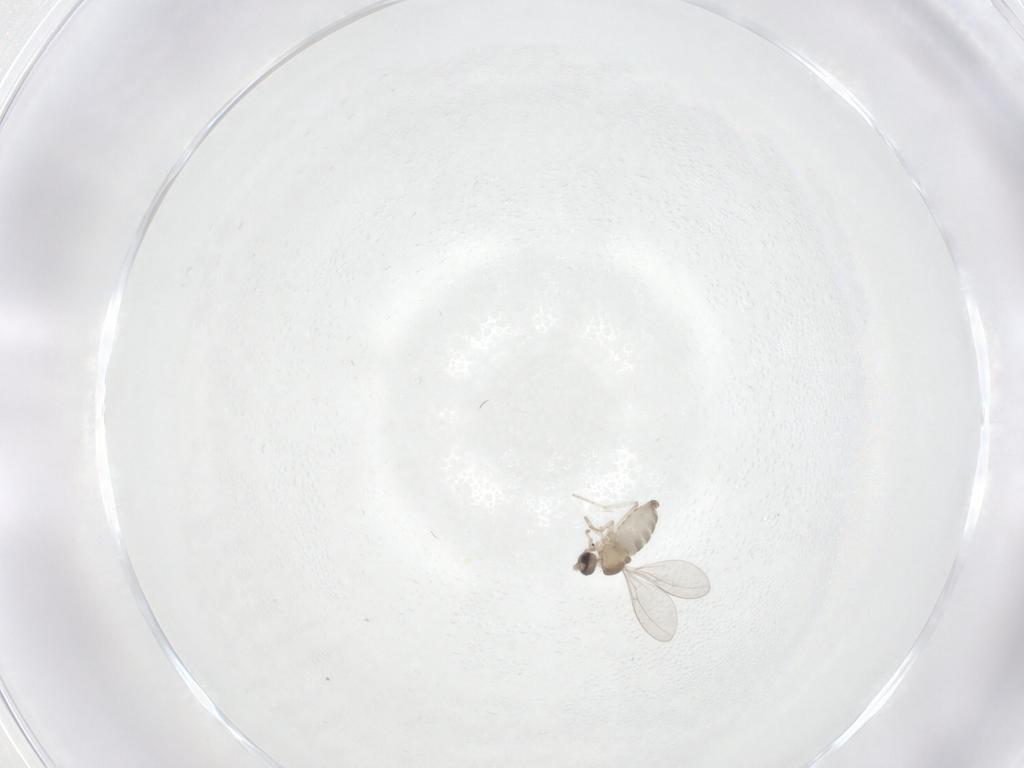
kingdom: Animalia
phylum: Arthropoda
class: Insecta
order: Diptera
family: Cecidomyiidae
